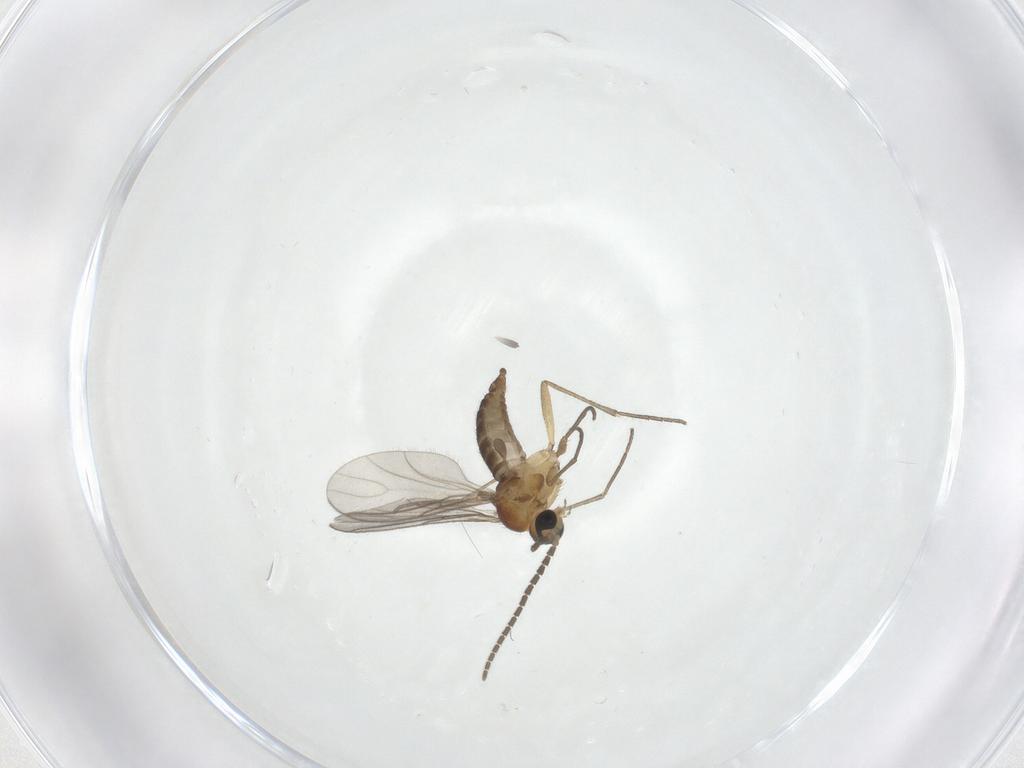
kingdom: Animalia
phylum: Arthropoda
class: Insecta
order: Diptera
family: Sciaridae
